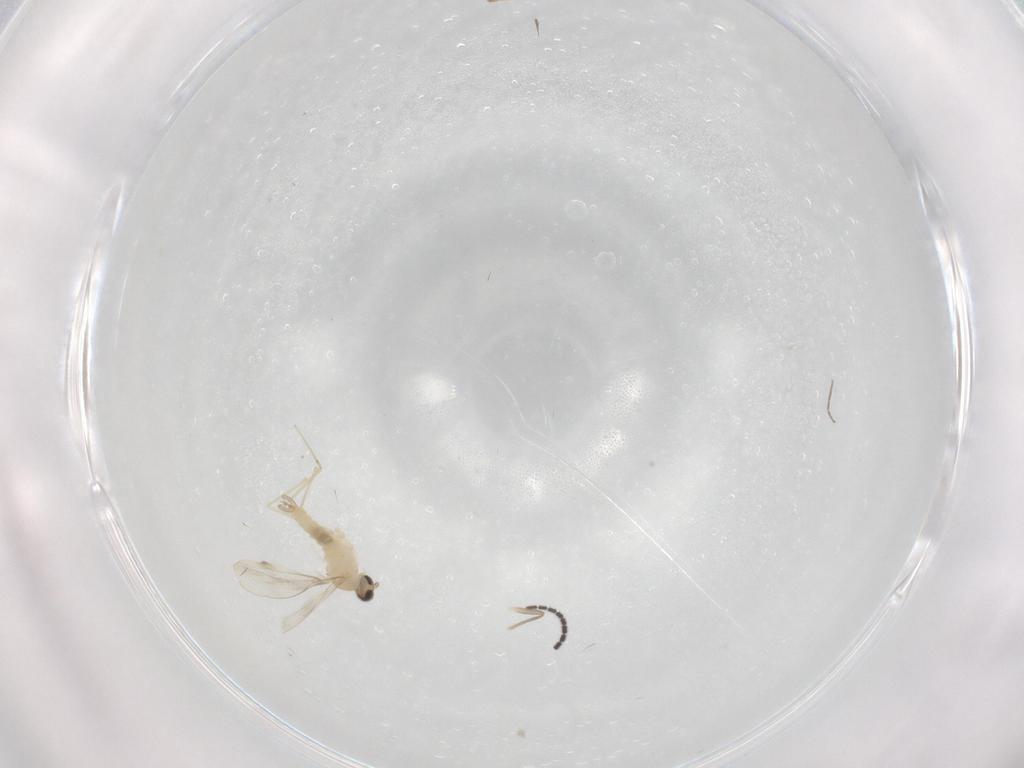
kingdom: Animalia
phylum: Arthropoda
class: Insecta
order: Diptera
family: Cecidomyiidae
